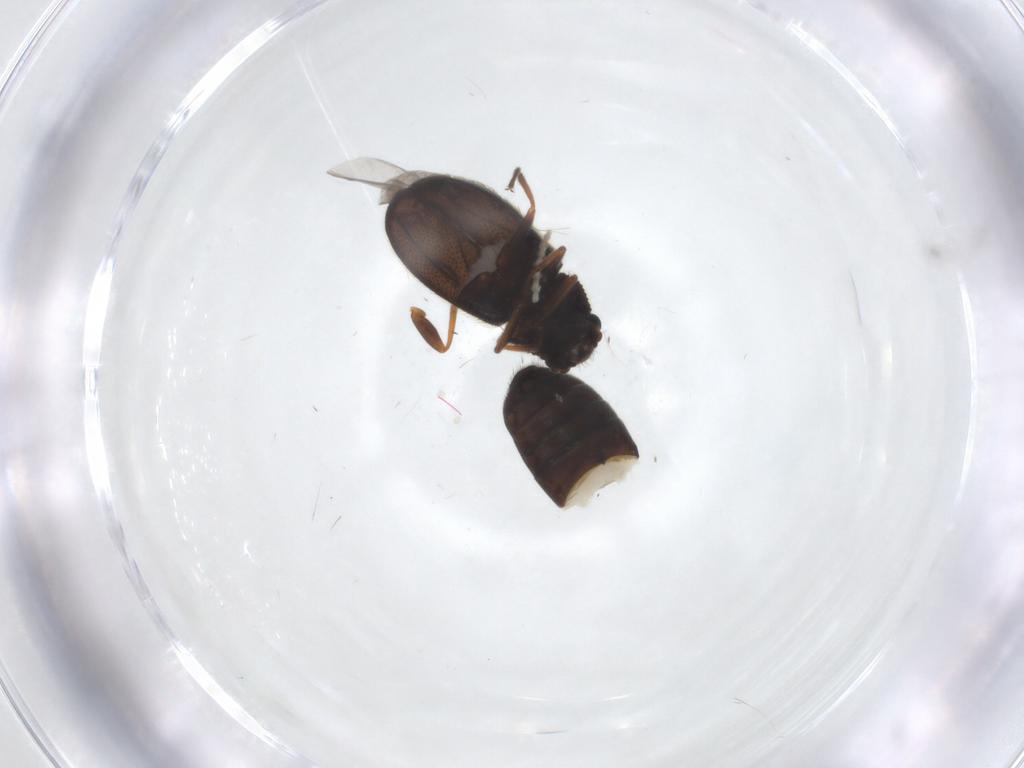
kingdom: Animalia
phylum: Arthropoda
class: Insecta
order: Coleoptera
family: Melyridae
